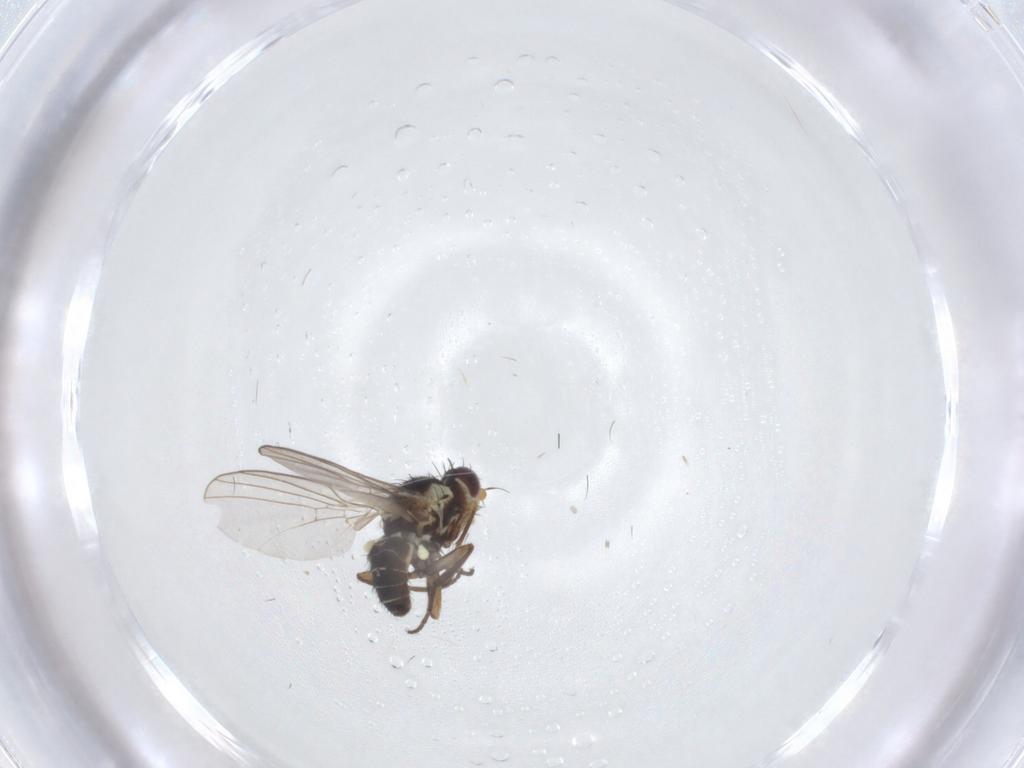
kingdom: Animalia
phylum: Arthropoda
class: Insecta
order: Diptera
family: Agromyzidae
